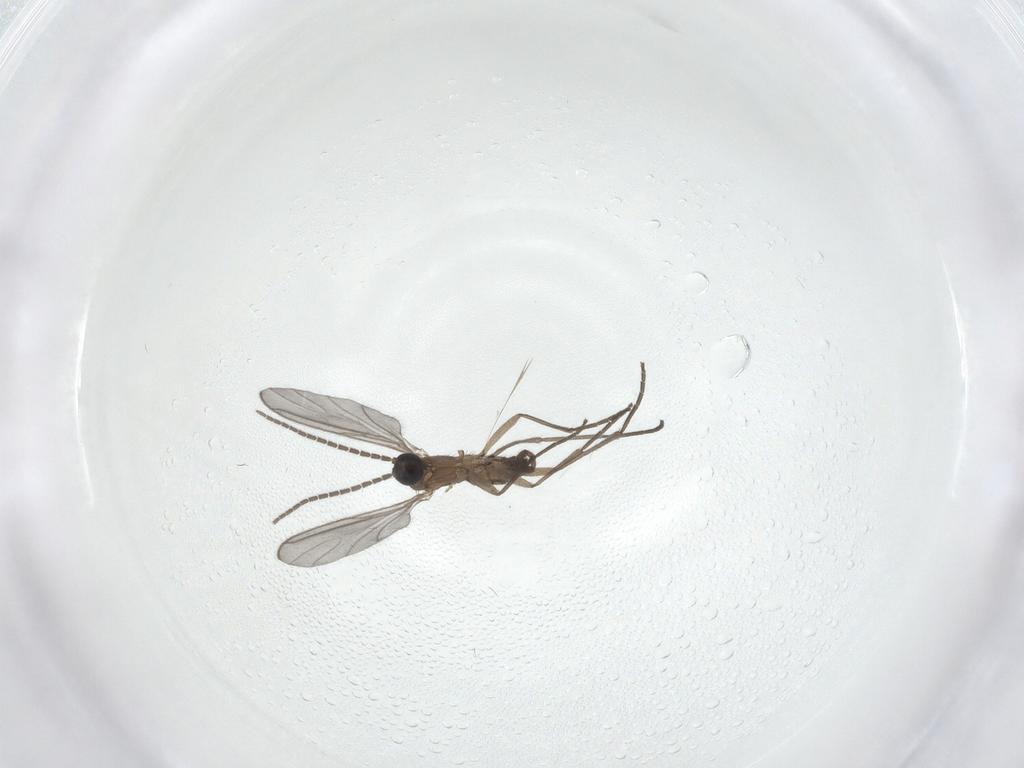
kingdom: Animalia
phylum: Arthropoda
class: Insecta
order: Diptera
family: Sciaridae
